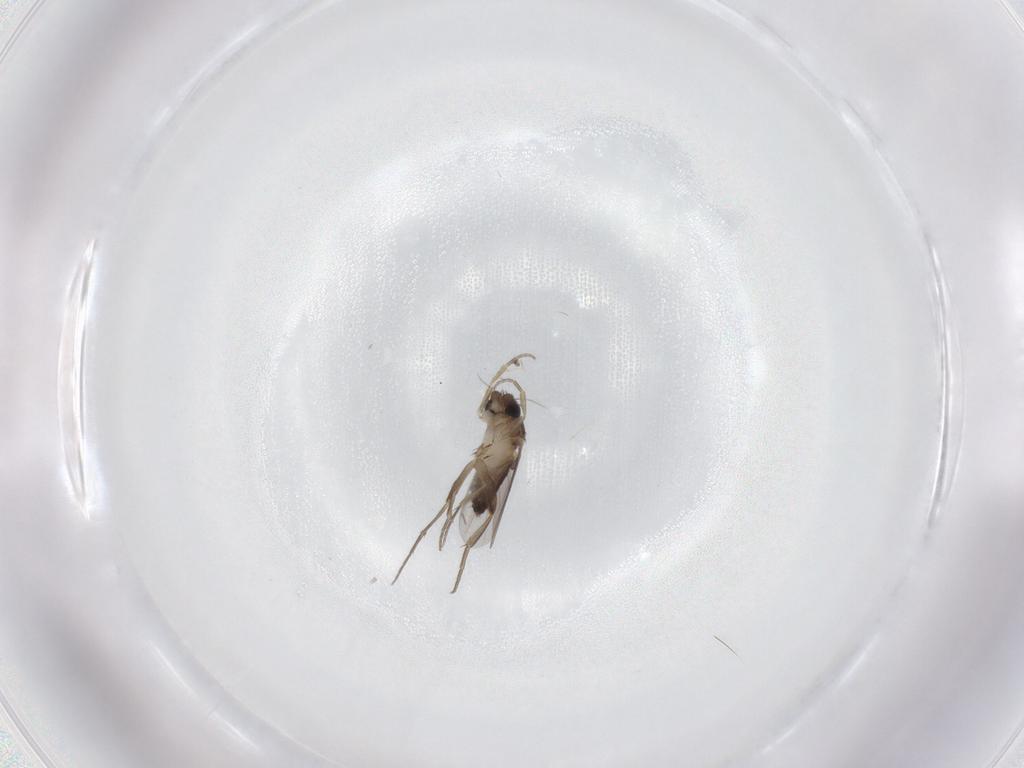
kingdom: Animalia
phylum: Arthropoda
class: Insecta
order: Diptera
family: Phoridae
